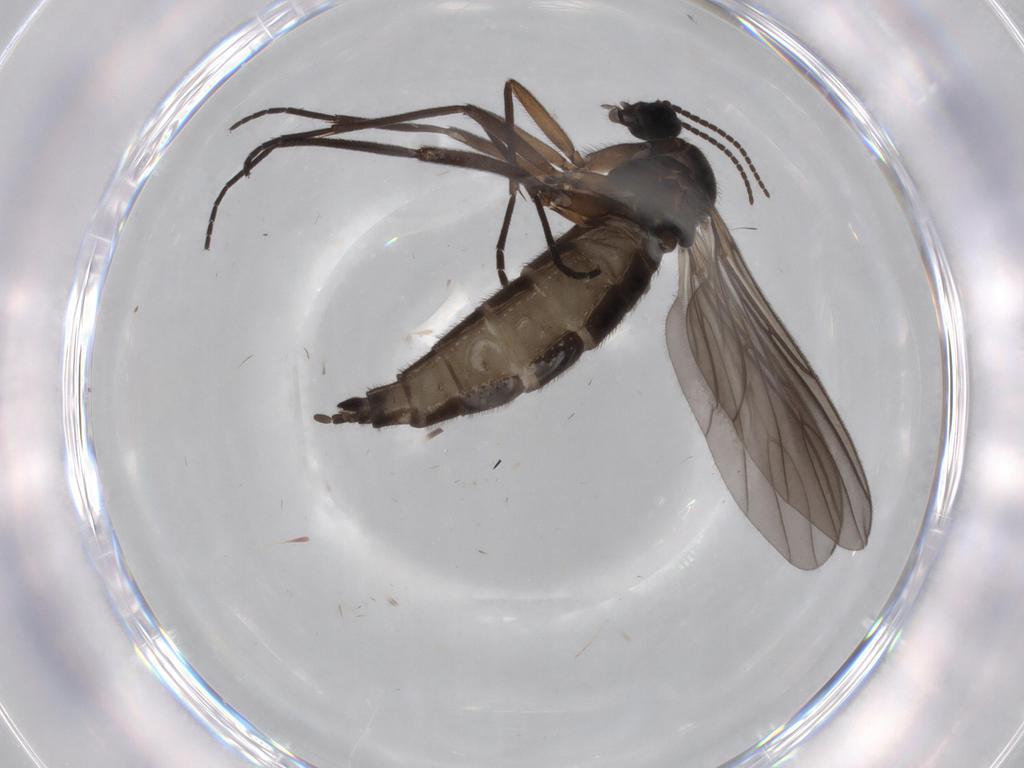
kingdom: Animalia
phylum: Arthropoda
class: Insecta
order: Diptera
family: Sciaridae
